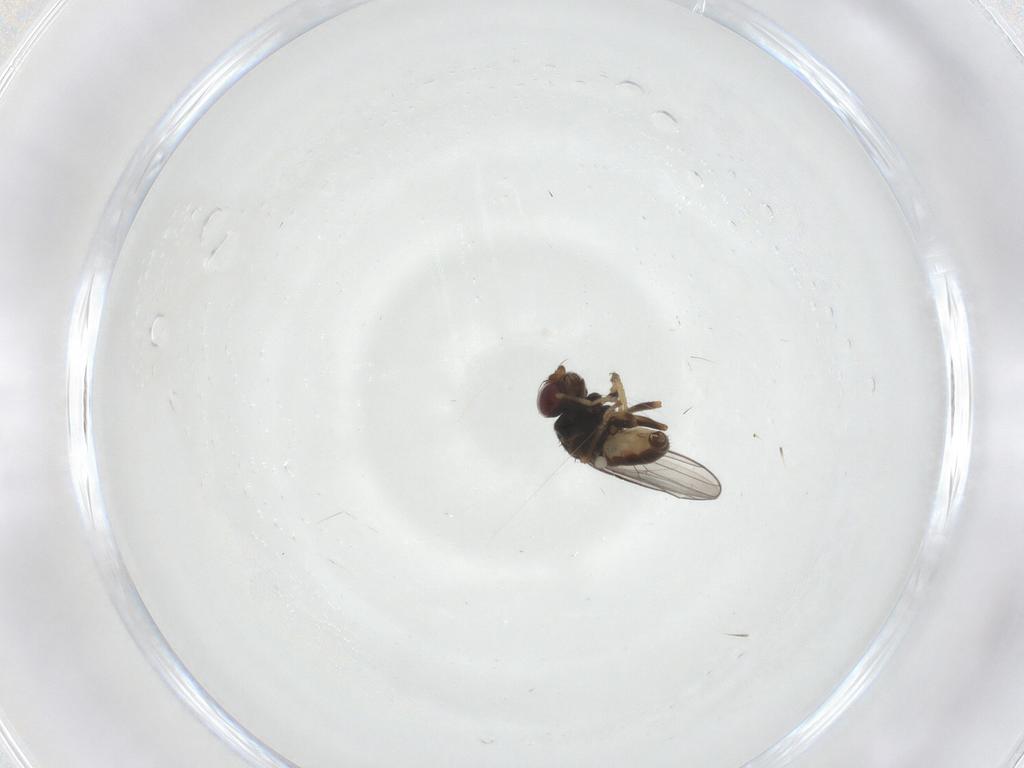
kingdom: Animalia
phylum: Arthropoda
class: Insecta
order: Diptera
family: Chloropidae
